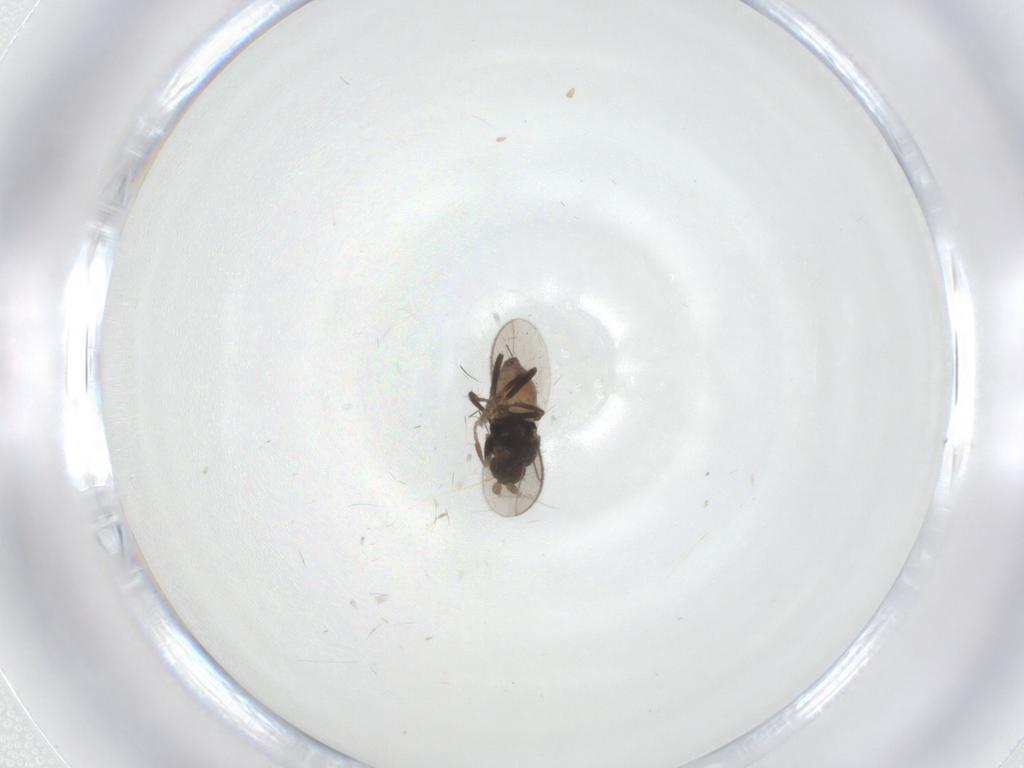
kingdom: Animalia
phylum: Arthropoda
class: Insecta
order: Diptera
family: Sphaeroceridae
